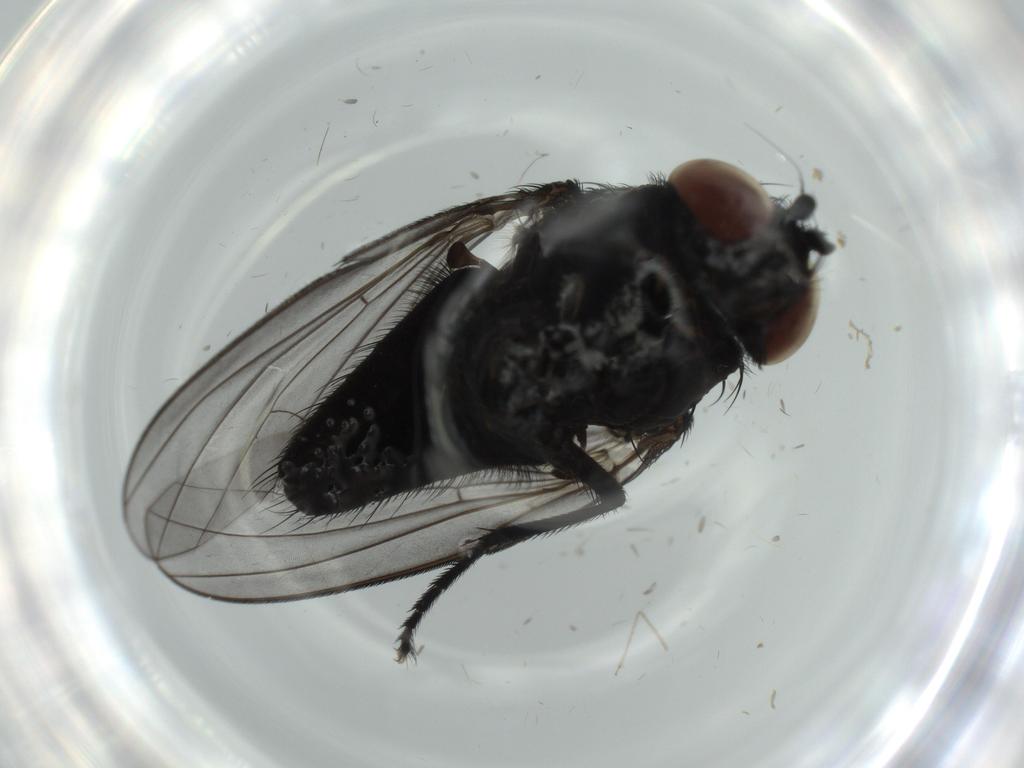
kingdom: Animalia
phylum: Arthropoda
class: Insecta
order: Diptera
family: Milichiidae
